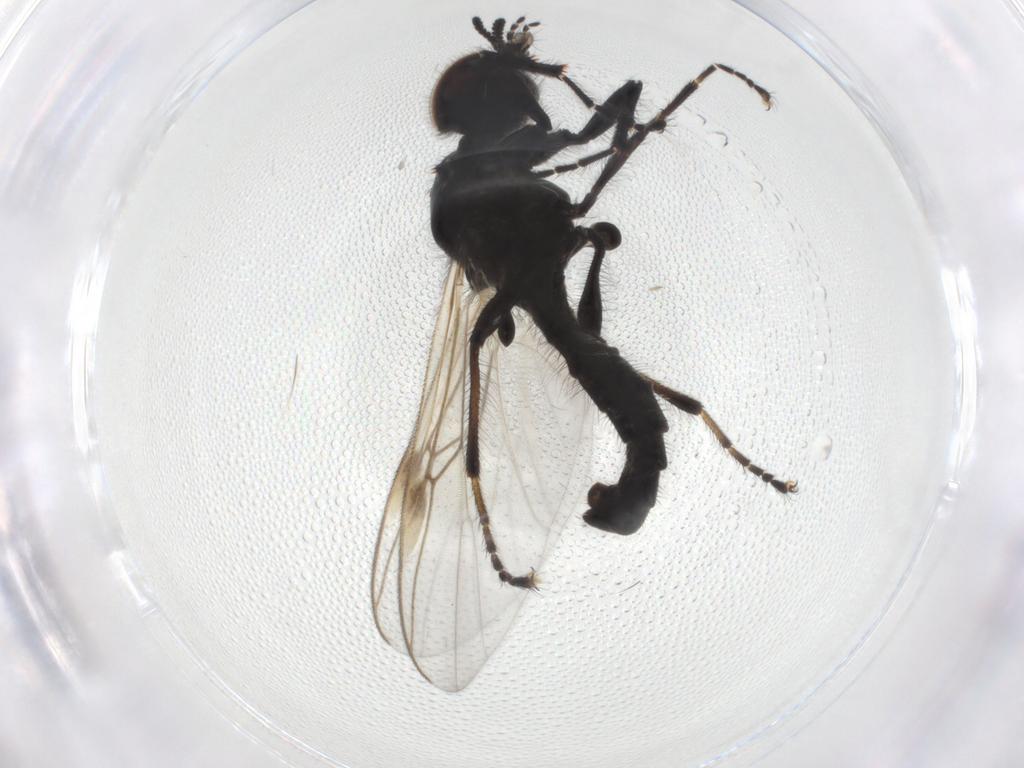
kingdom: Animalia
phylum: Arthropoda
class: Insecta
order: Diptera
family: Bibionidae
